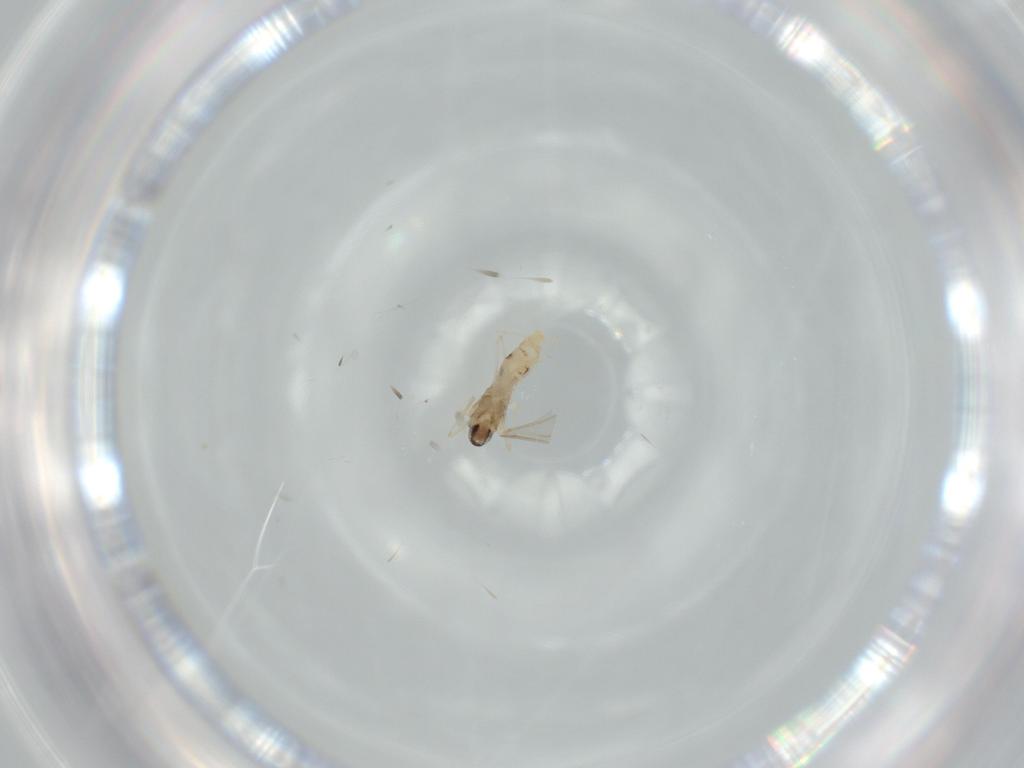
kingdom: Animalia
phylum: Arthropoda
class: Insecta
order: Diptera
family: Cecidomyiidae
